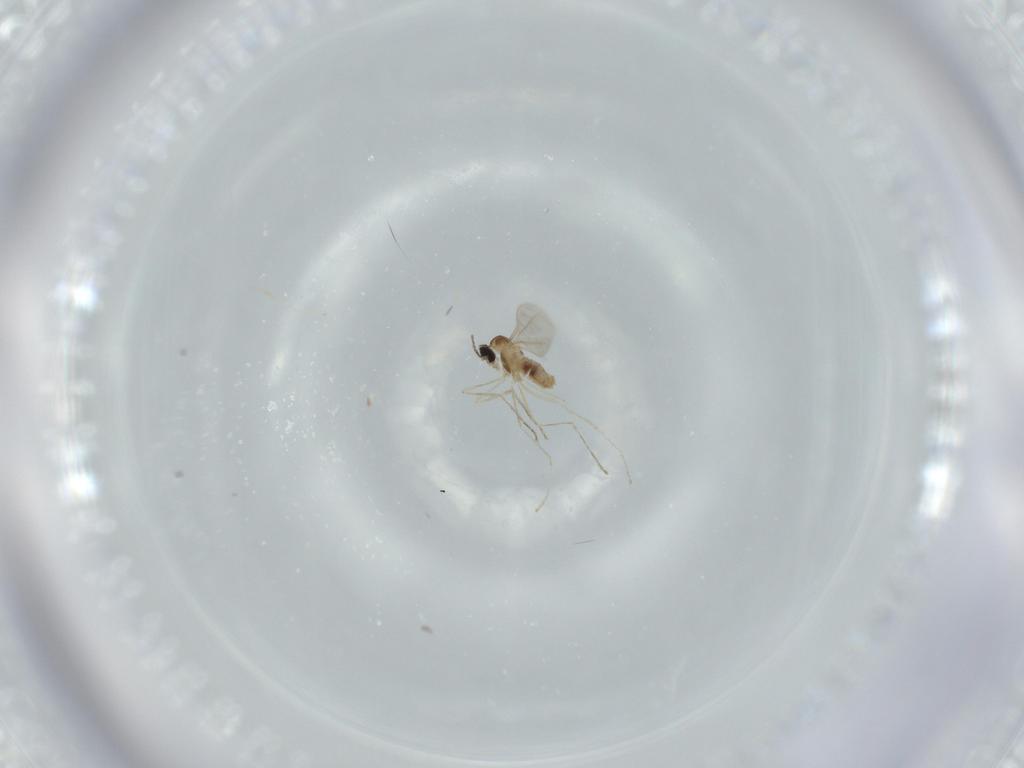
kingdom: Animalia
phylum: Arthropoda
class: Insecta
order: Diptera
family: Cecidomyiidae
